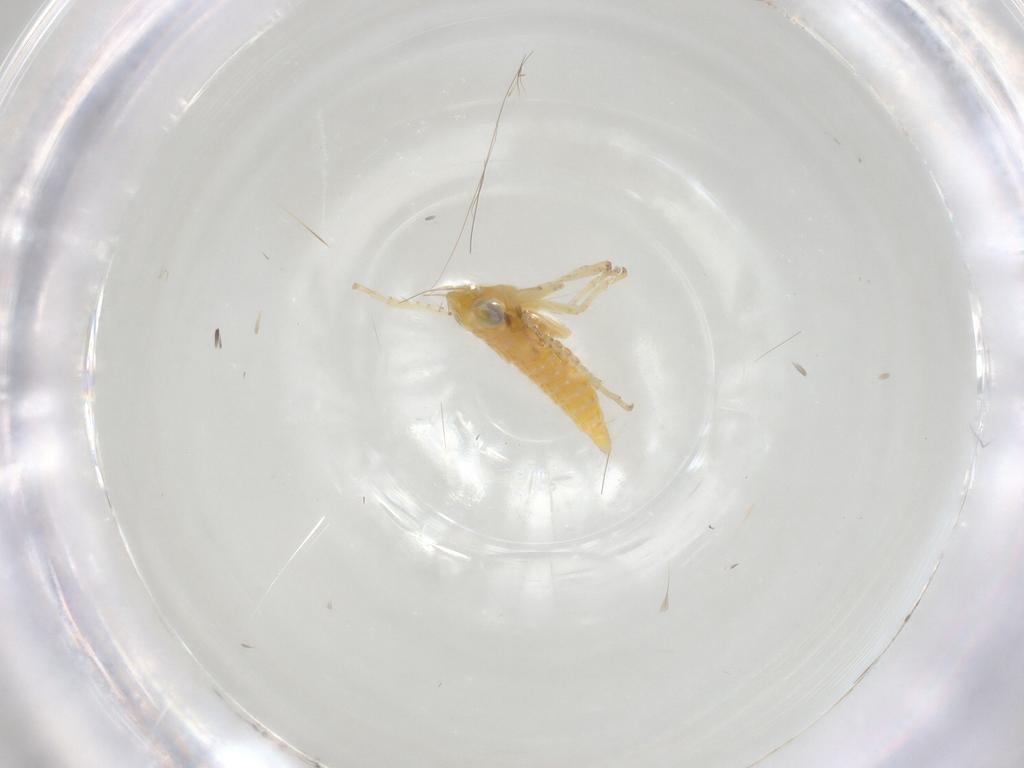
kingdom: Animalia
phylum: Arthropoda
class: Insecta
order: Hemiptera
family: Cicadellidae
